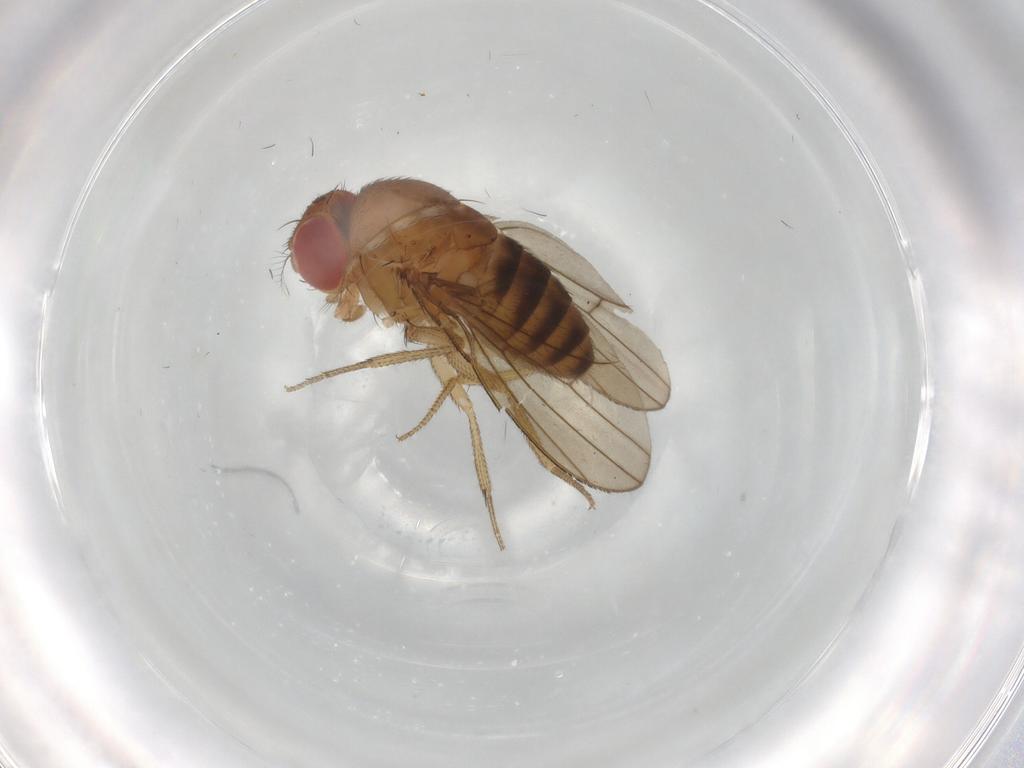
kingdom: Animalia
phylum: Arthropoda
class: Insecta
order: Diptera
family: Drosophilidae
